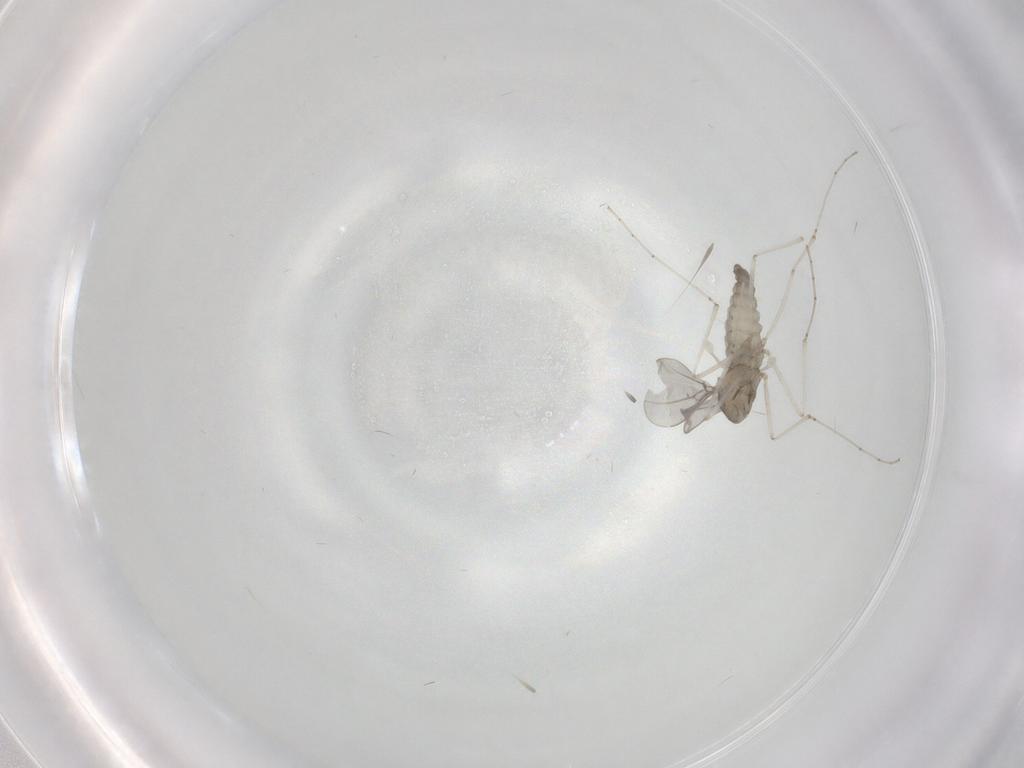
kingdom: Animalia
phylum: Arthropoda
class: Insecta
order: Diptera
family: Cecidomyiidae
